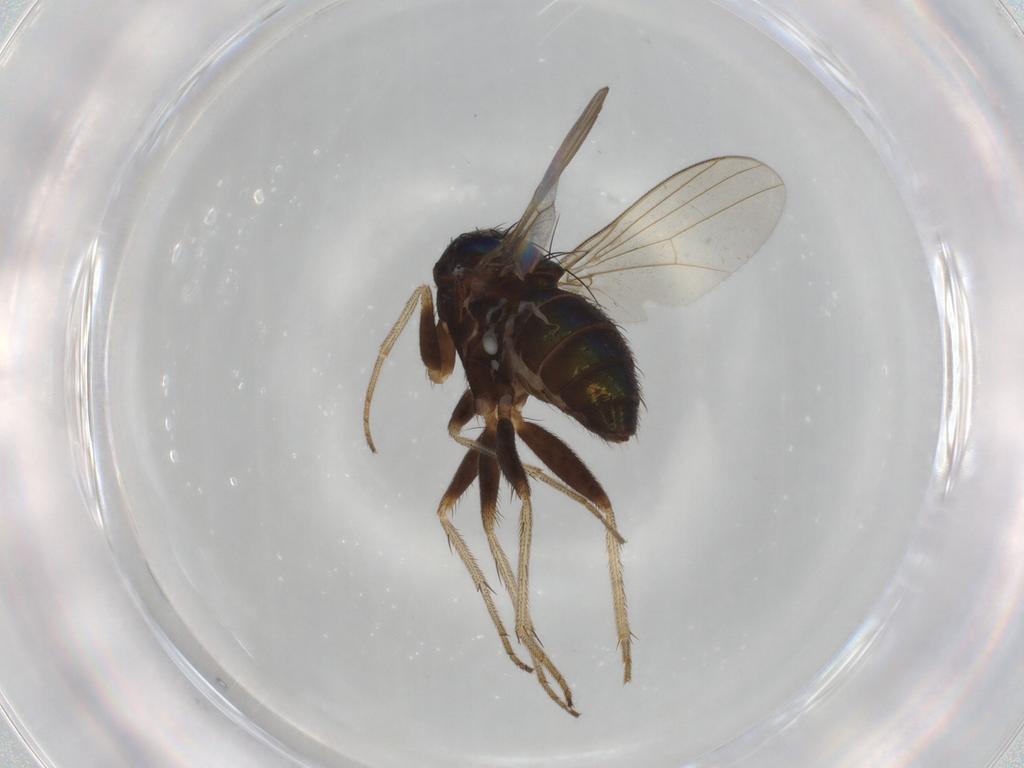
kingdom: Animalia
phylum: Arthropoda
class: Insecta
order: Diptera
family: Dolichopodidae
